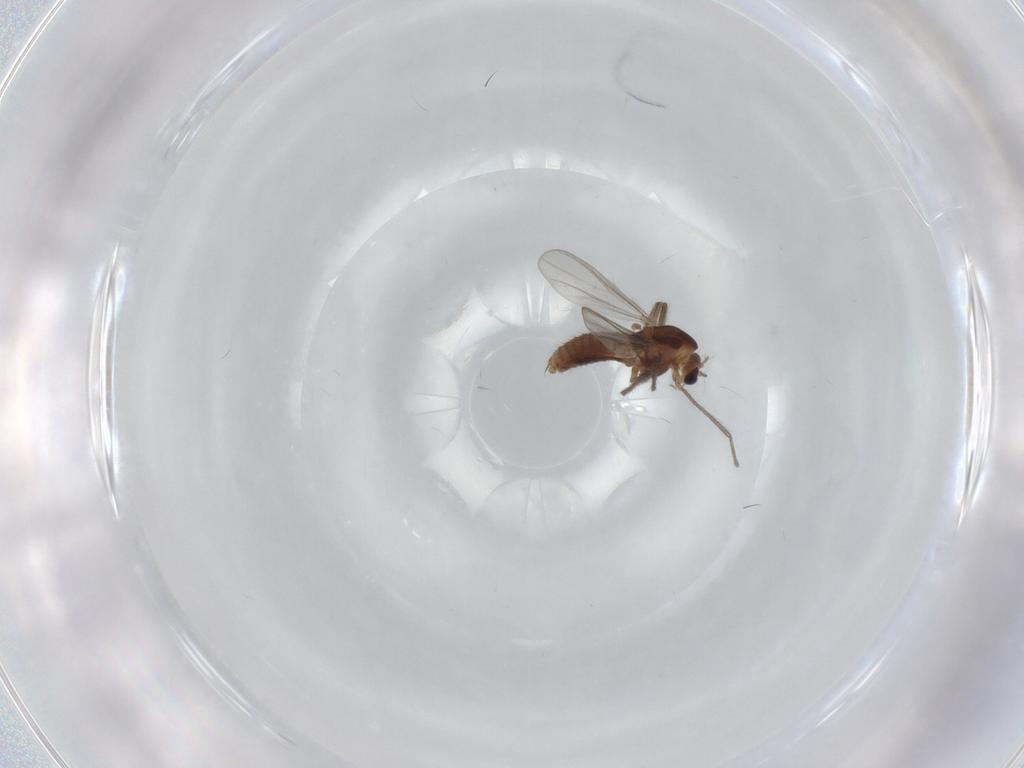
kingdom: Animalia
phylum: Arthropoda
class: Insecta
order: Diptera
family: Chironomidae
